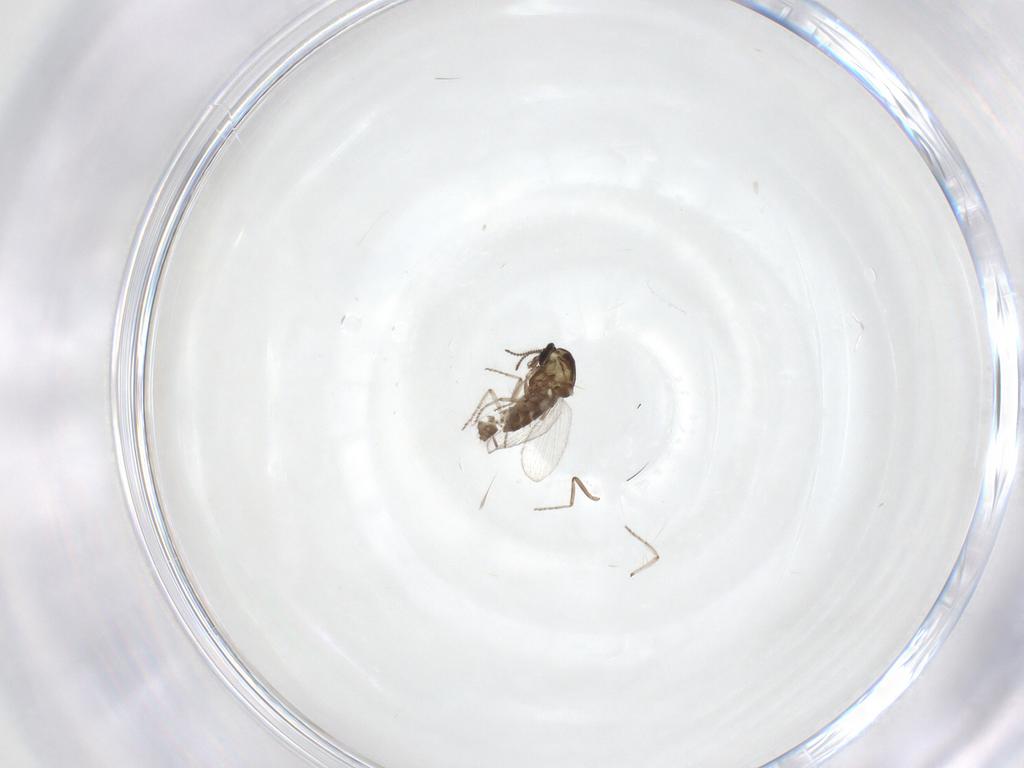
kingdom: Animalia
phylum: Arthropoda
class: Insecta
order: Diptera
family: Ceratopogonidae
